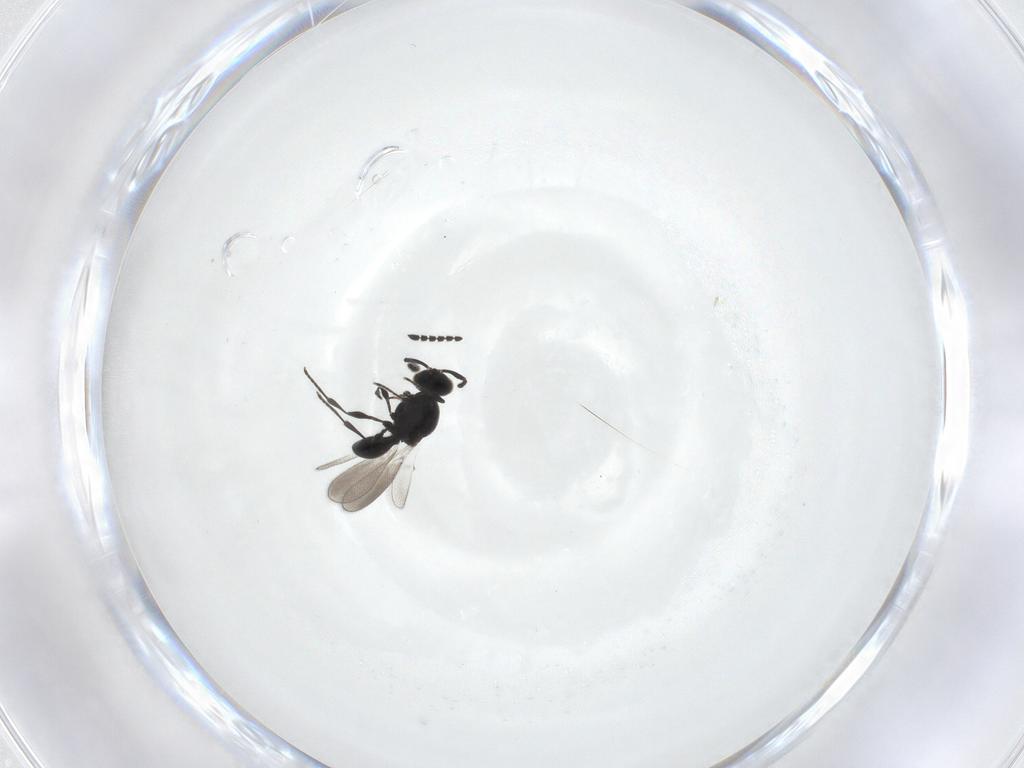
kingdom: Animalia
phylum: Arthropoda
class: Insecta
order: Hymenoptera
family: Platygastridae
